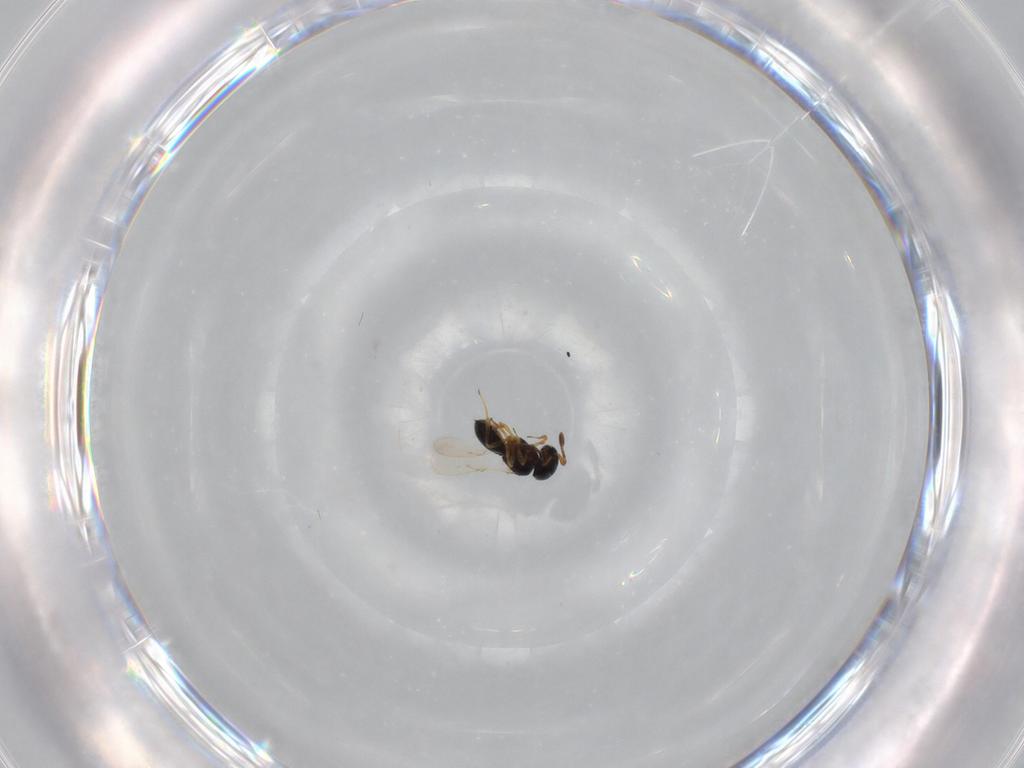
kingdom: Animalia
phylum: Arthropoda
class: Insecta
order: Hymenoptera
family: Scelionidae
